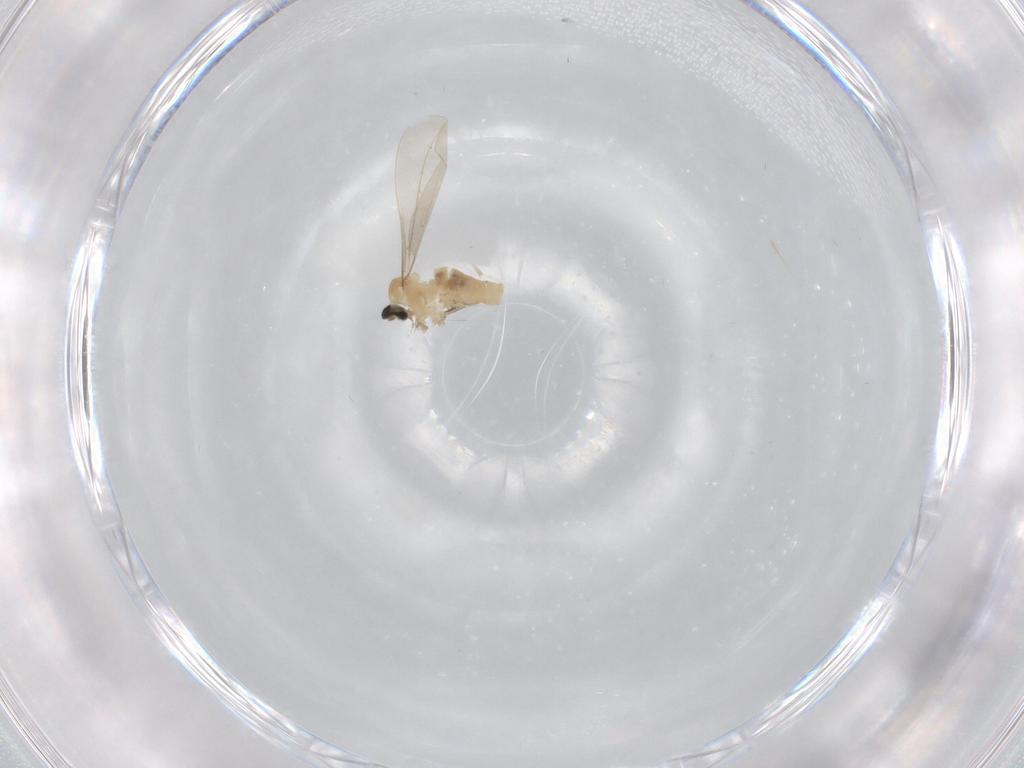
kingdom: Animalia
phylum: Arthropoda
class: Insecta
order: Diptera
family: Cecidomyiidae
